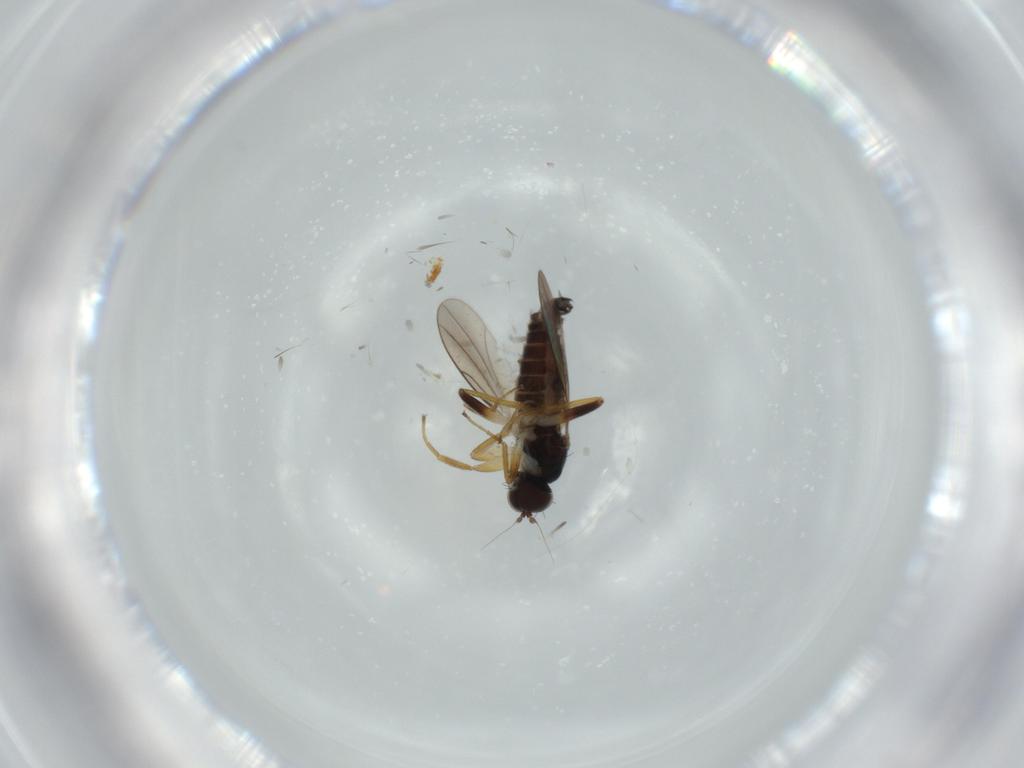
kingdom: Animalia
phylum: Arthropoda
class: Insecta
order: Diptera
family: Hybotidae
